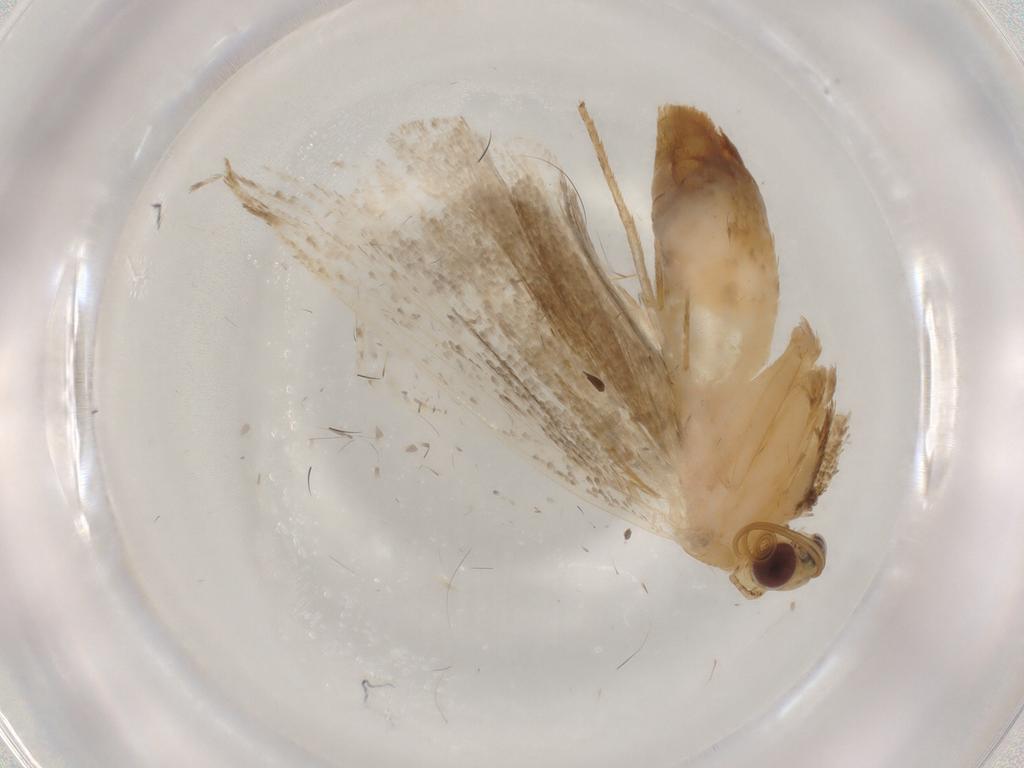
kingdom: Animalia
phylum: Arthropoda
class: Insecta
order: Lepidoptera
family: Erebidae
